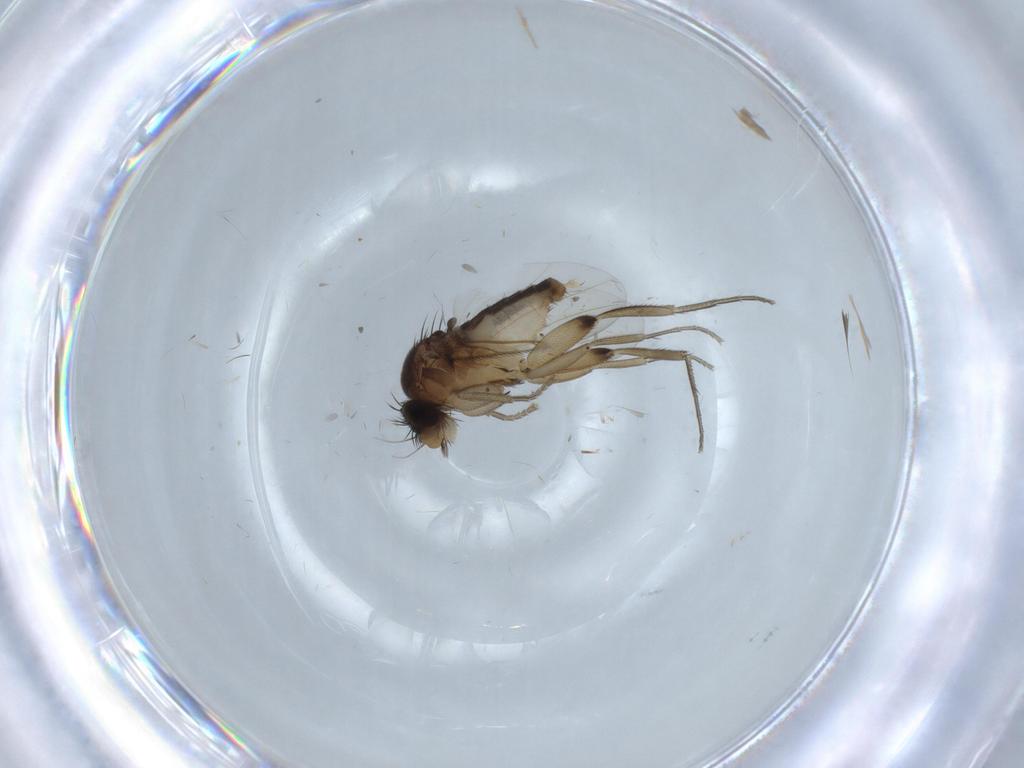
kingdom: Animalia
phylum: Arthropoda
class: Insecta
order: Diptera
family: Phoridae
